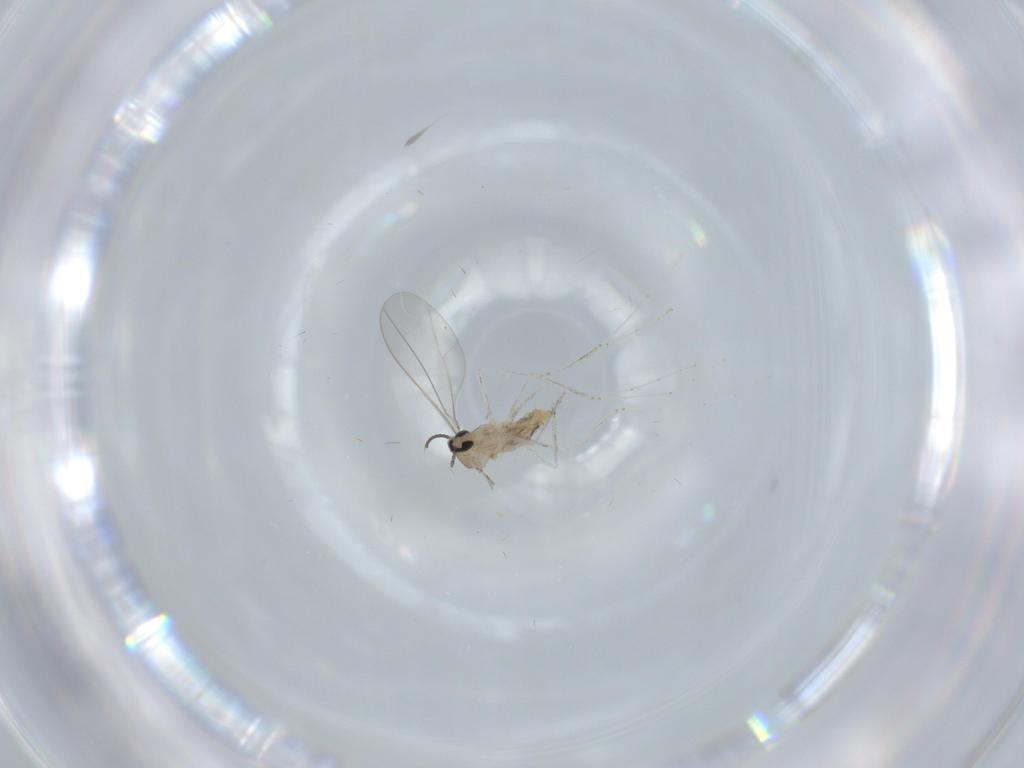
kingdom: Animalia
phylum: Arthropoda
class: Insecta
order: Diptera
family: Cecidomyiidae
